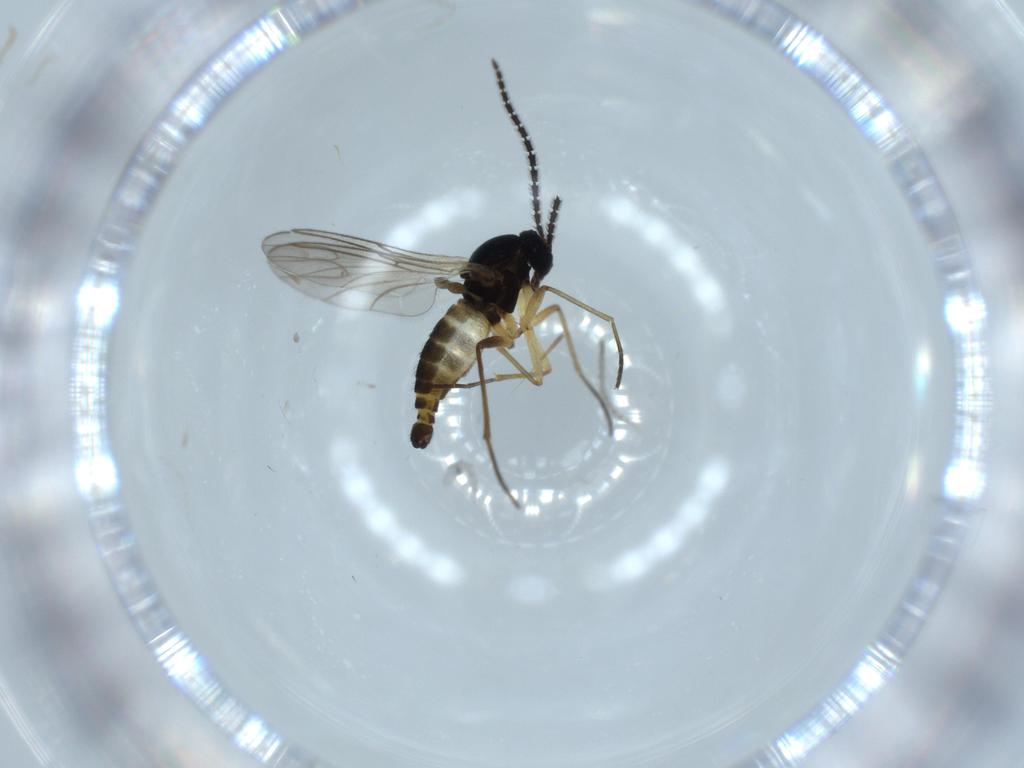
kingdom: Animalia
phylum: Arthropoda
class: Insecta
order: Diptera
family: Sciaridae
